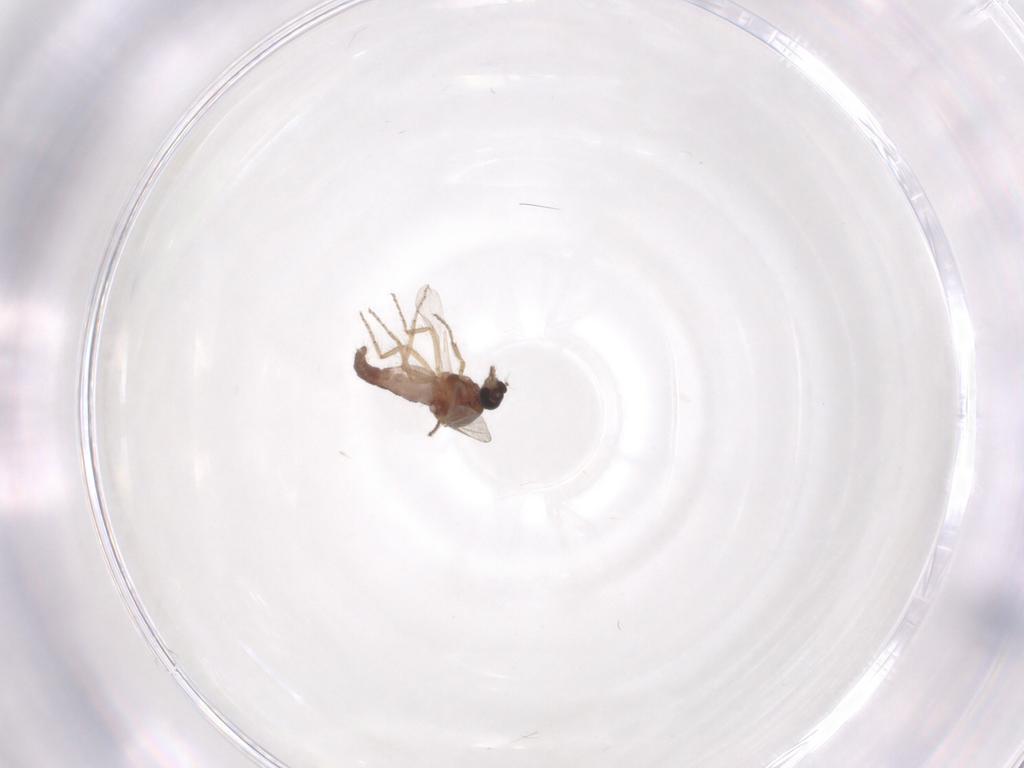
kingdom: Animalia
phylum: Arthropoda
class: Insecta
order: Diptera
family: Ceratopogonidae
